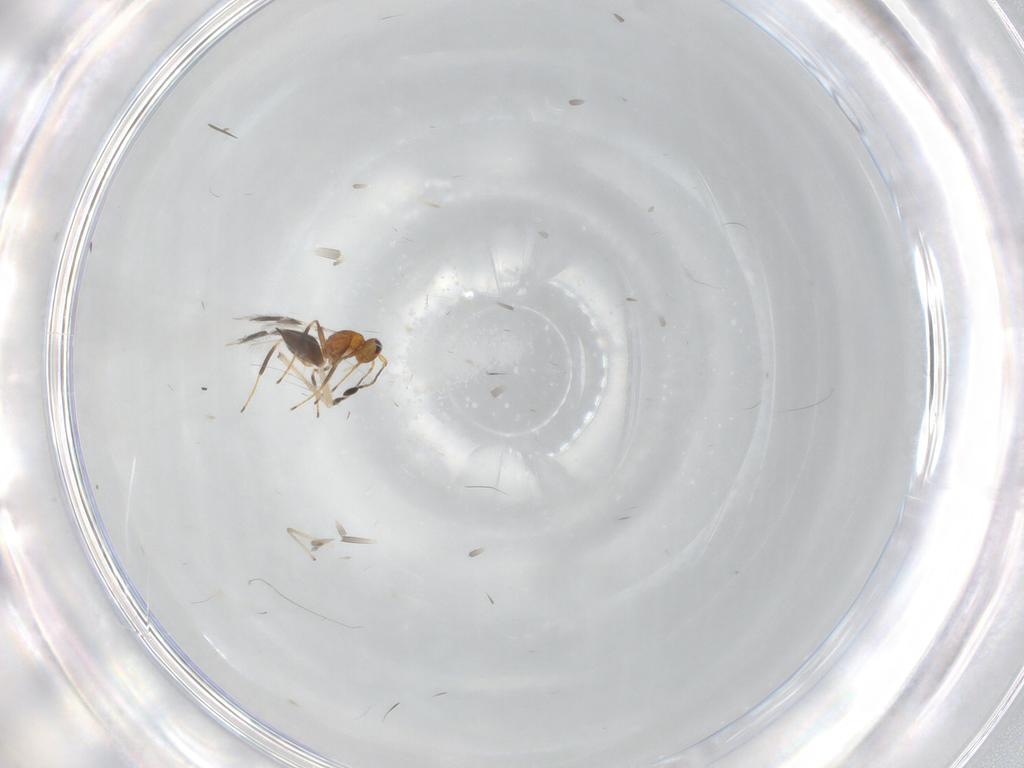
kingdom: Animalia
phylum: Arthropoda
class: Insecta
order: Hymenoptera
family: Mymaridae
